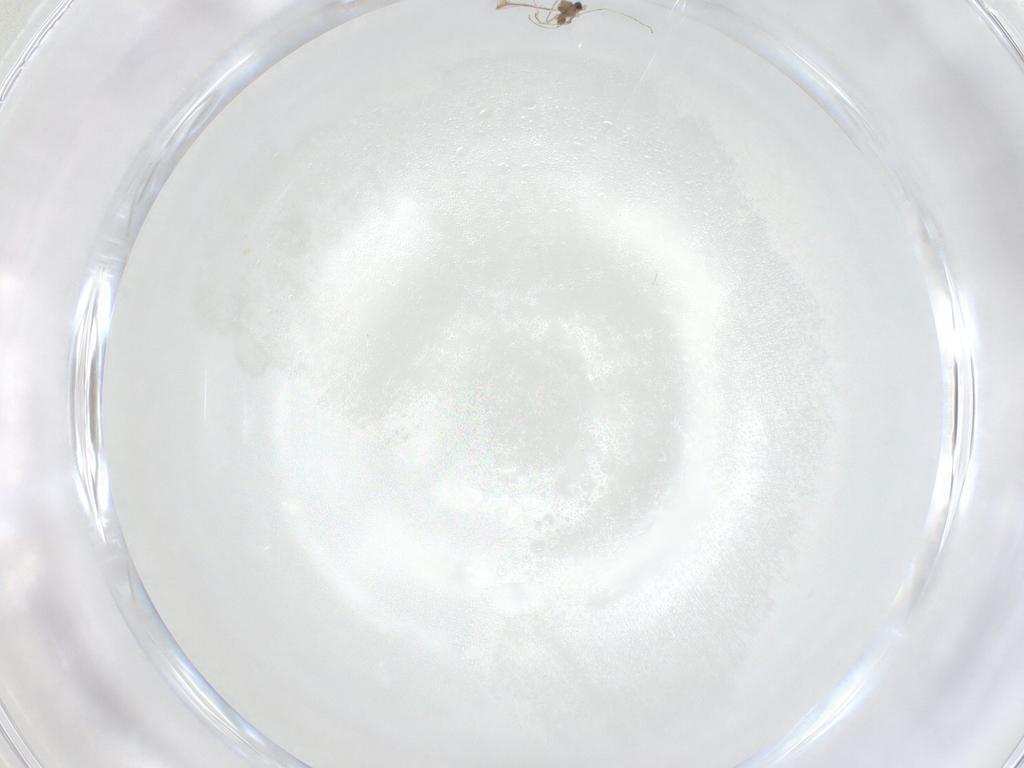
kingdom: Animalia
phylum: Arthropoda
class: Insecta
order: Diptera
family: Cecidomyiidae
